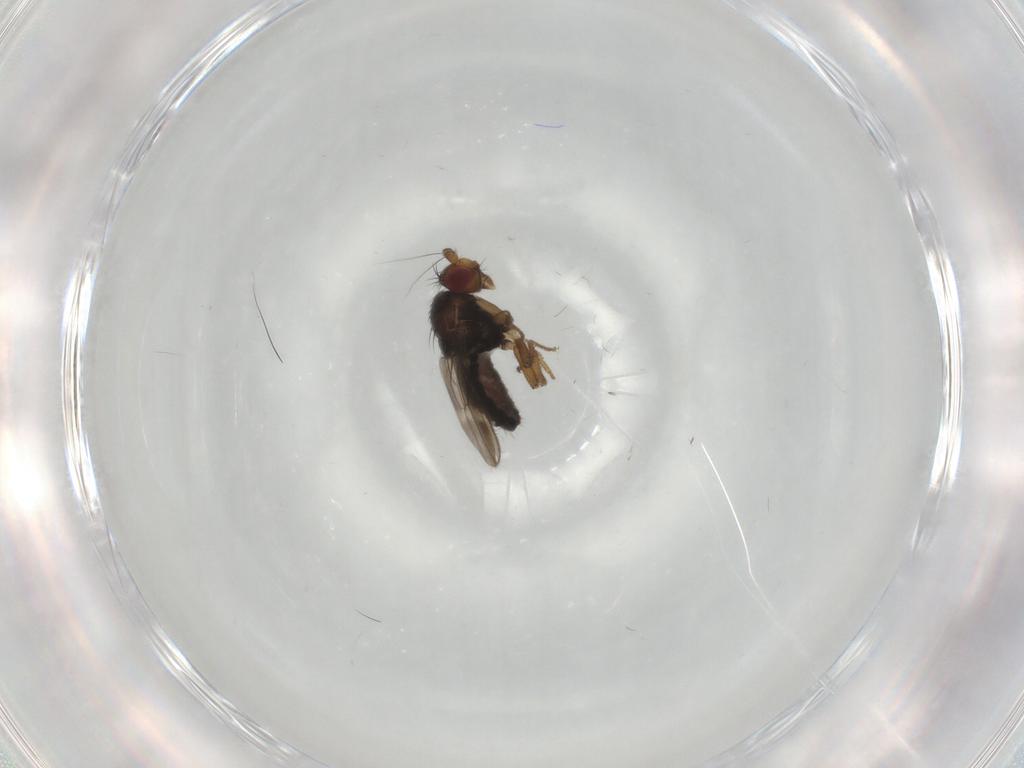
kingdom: Animalia
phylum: Arthropoda
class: Insecta
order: Diptera
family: Sphaeroceridae
